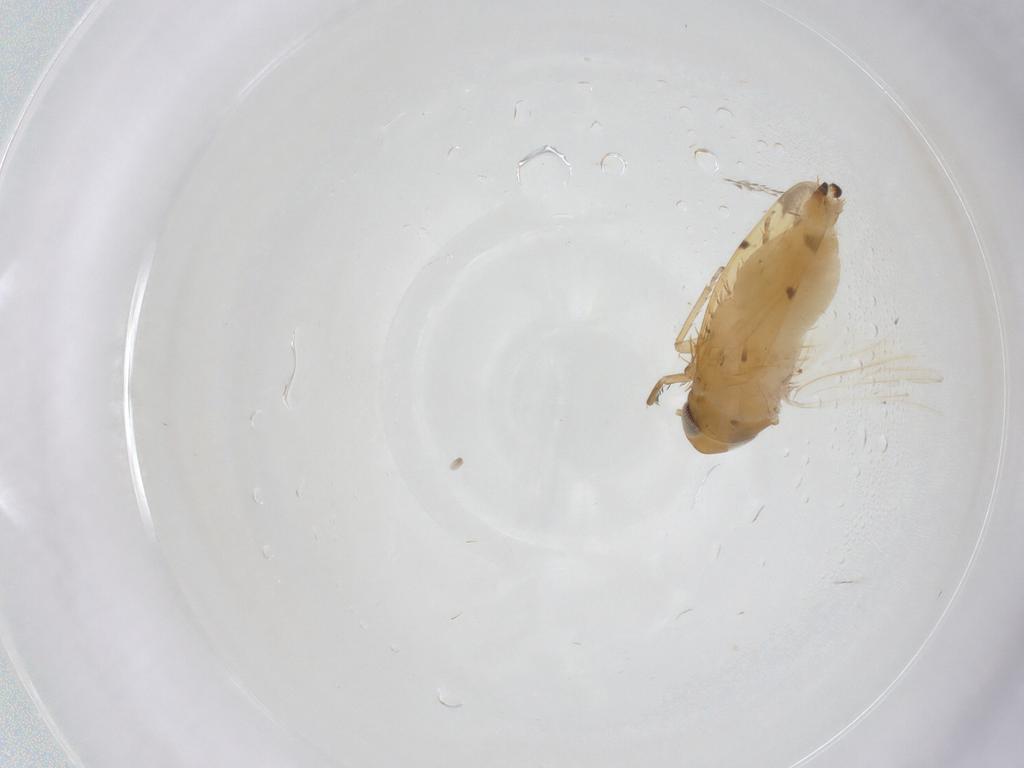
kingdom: Animalia
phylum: Arthropoda
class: Insecta
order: Hemiptera
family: Cicadellidae
